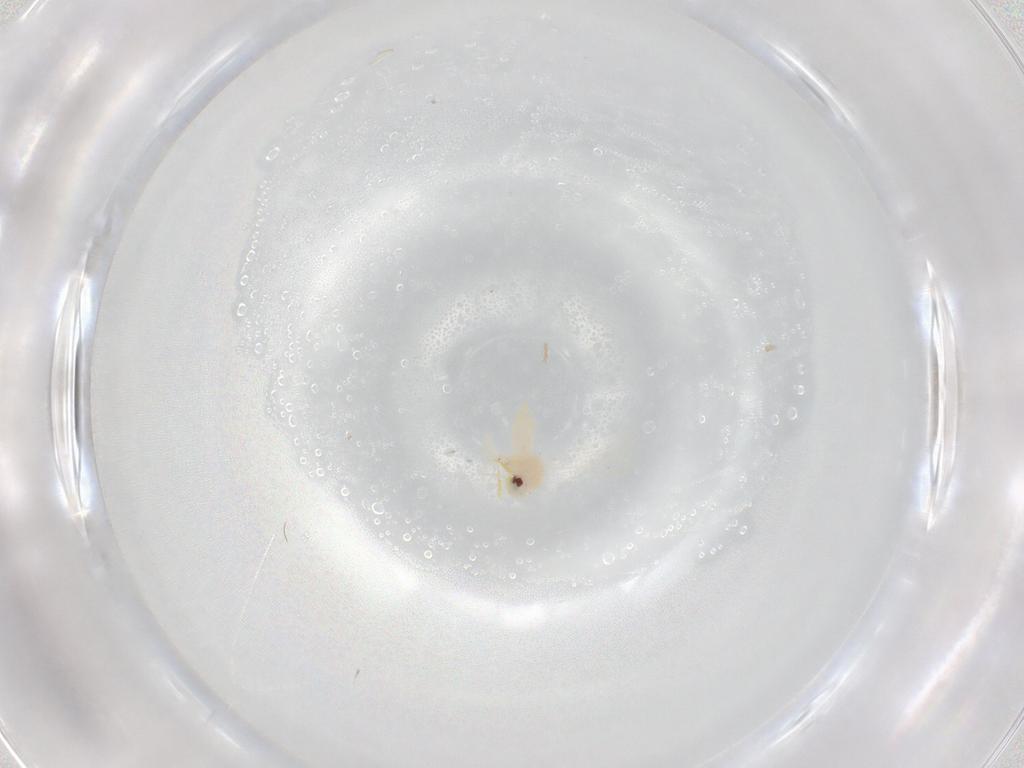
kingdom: Animalia
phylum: Arthropoda
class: Insecta
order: Hemiptera
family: Aleyrodidae
